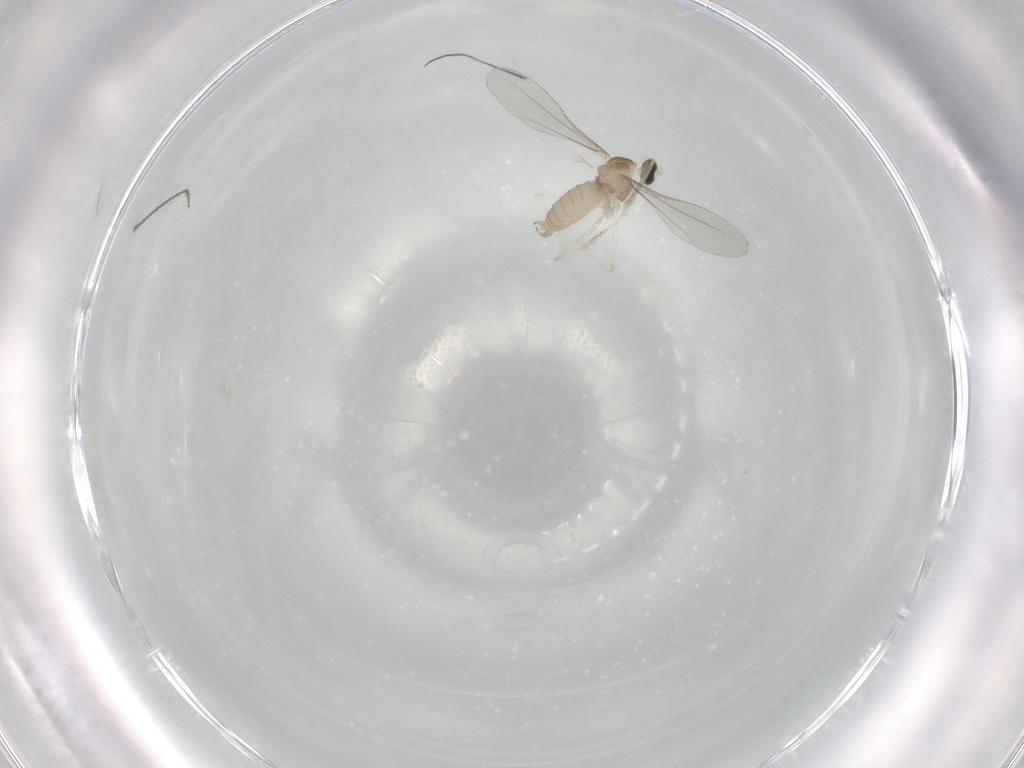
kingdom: Animalia
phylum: Arthropoda
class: Insecta
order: Diptera
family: Cecidomyiidae
